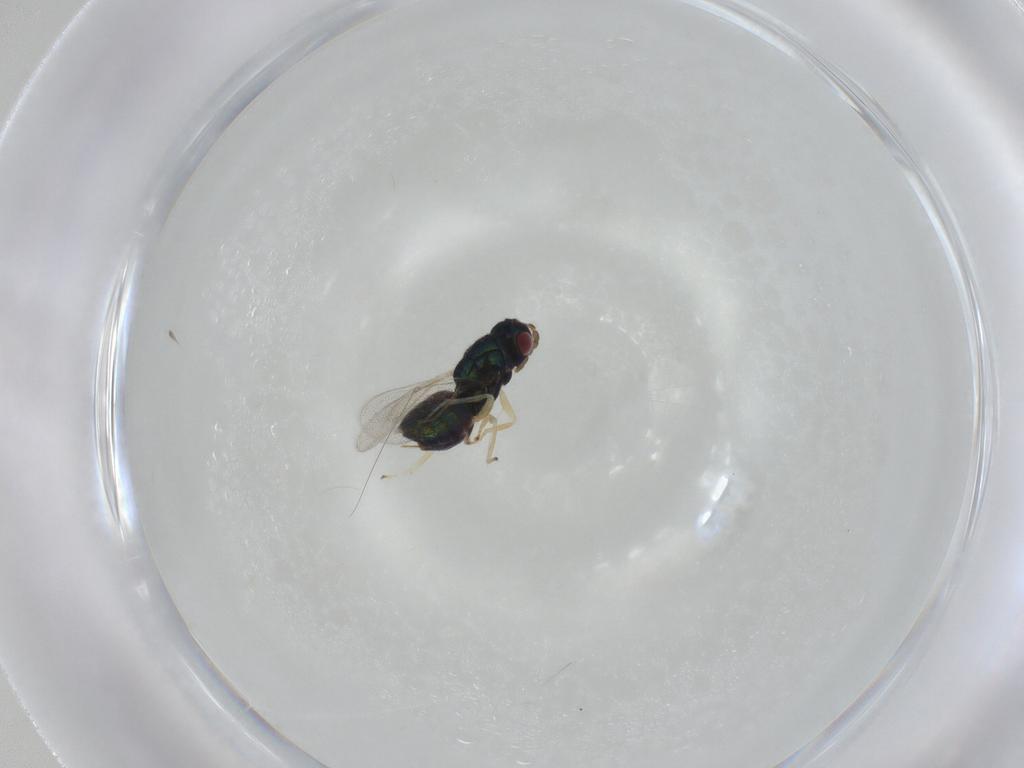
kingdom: Animalia
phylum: Arthropoda
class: Insecta
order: Hymenoptera
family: Eulophidae
